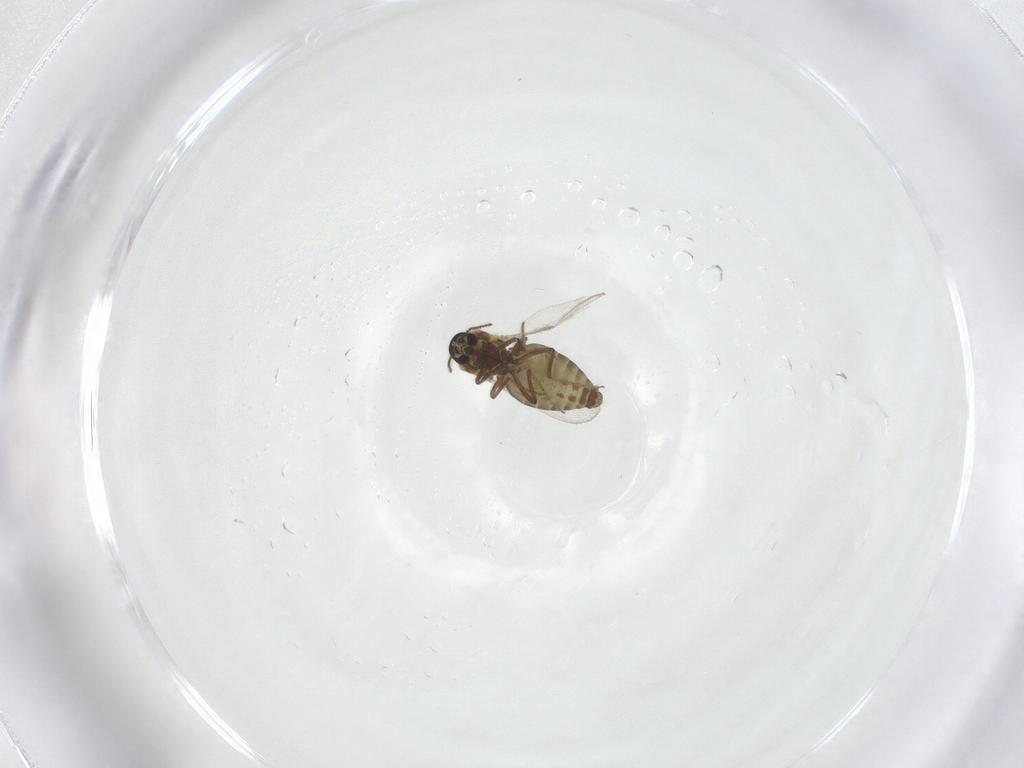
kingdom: Animalia
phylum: Arthropoda
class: Insecta
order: Diptera
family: Ceratopogonidae
